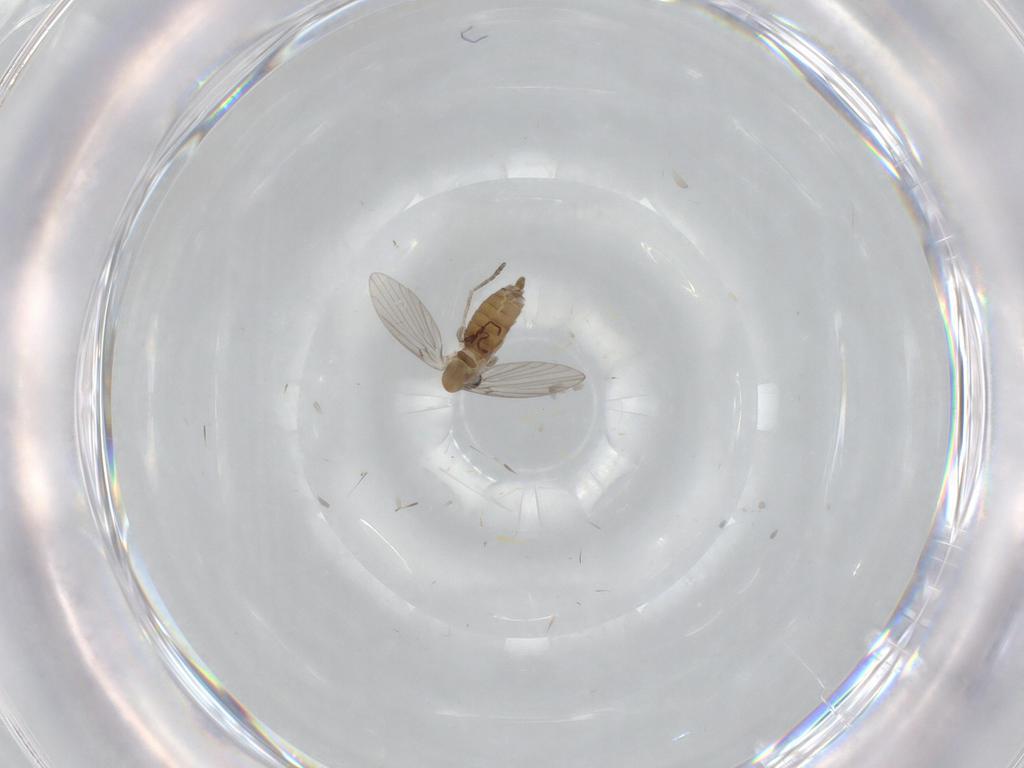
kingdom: Animalia
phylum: Arthropoda
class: Insecta
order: Diptera
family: Cecidomyiidae
